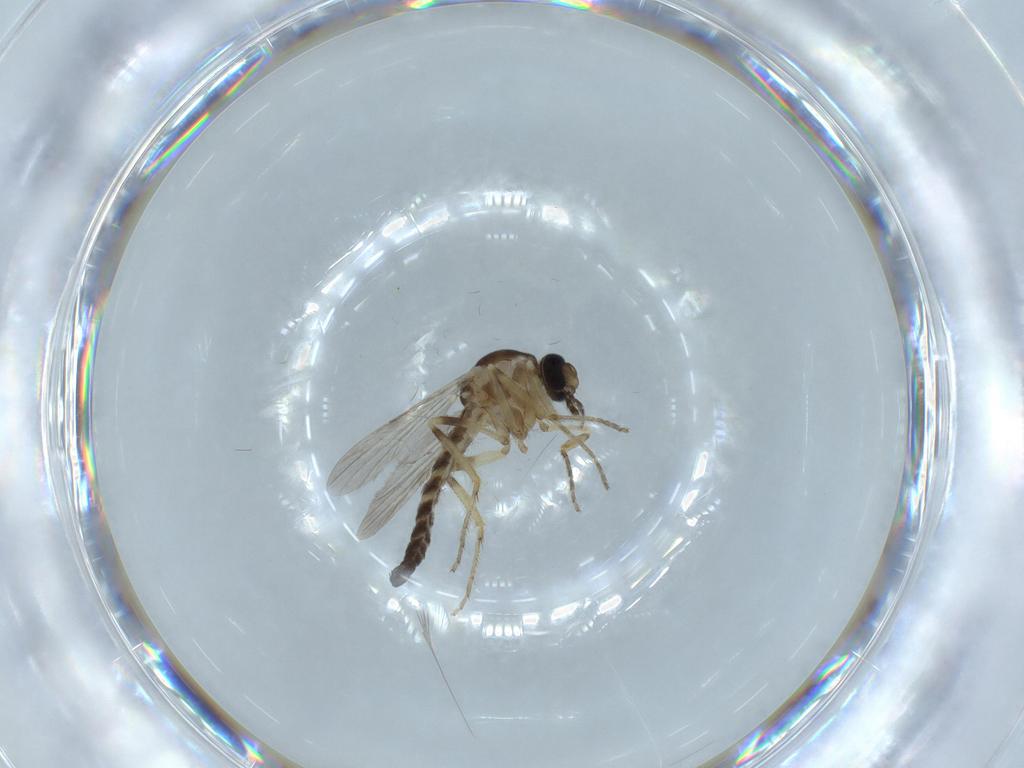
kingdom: Animalia
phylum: Arthropoda
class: Insecta
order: Diptera
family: Ceratopogonidae
